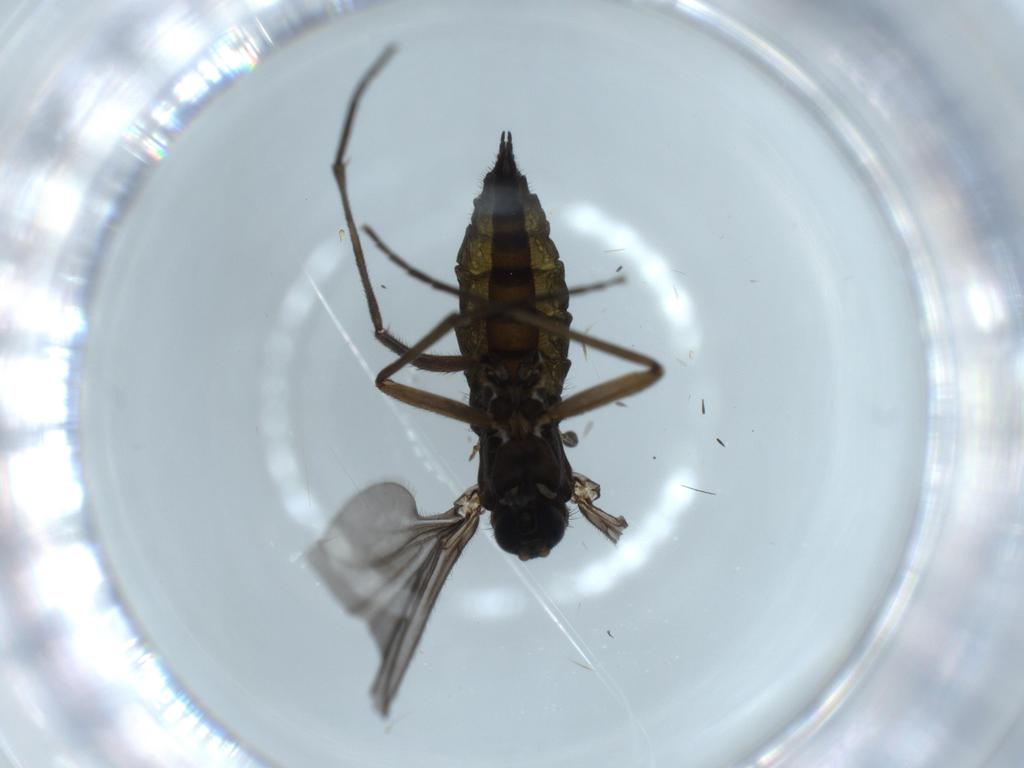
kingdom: Animalia
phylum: Arthropoda
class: Insecta
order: Diptera
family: Sciaridae
